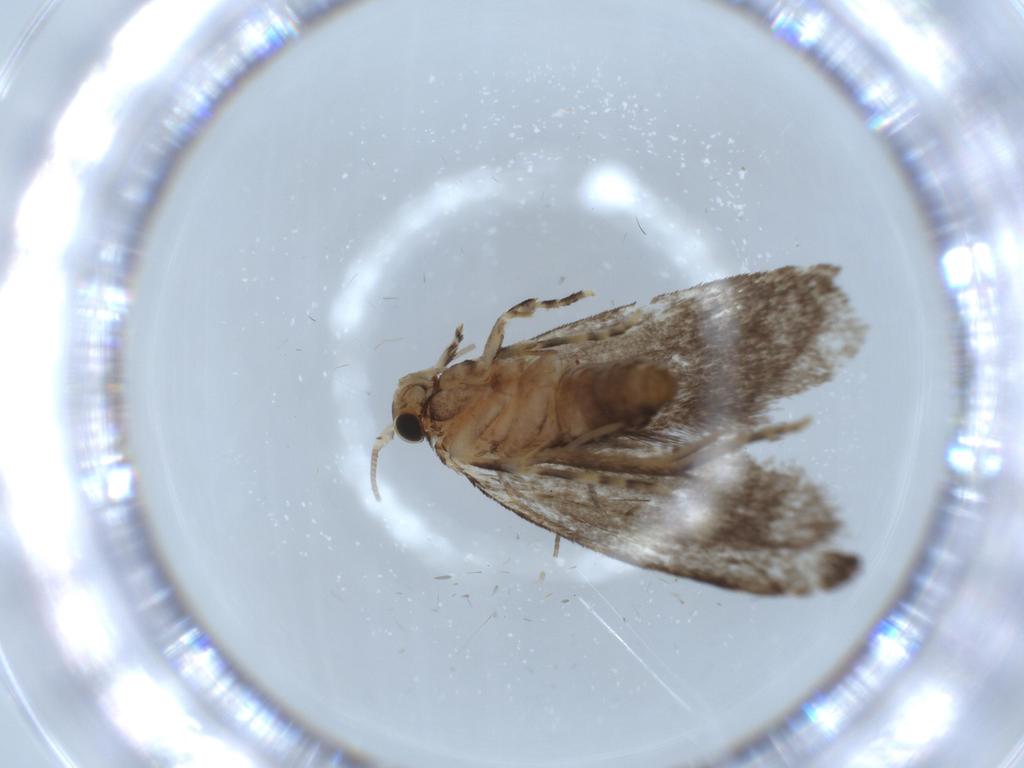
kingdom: Animalia
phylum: Arthropoda
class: Insecta
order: Lepidoptera
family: Tineidae
